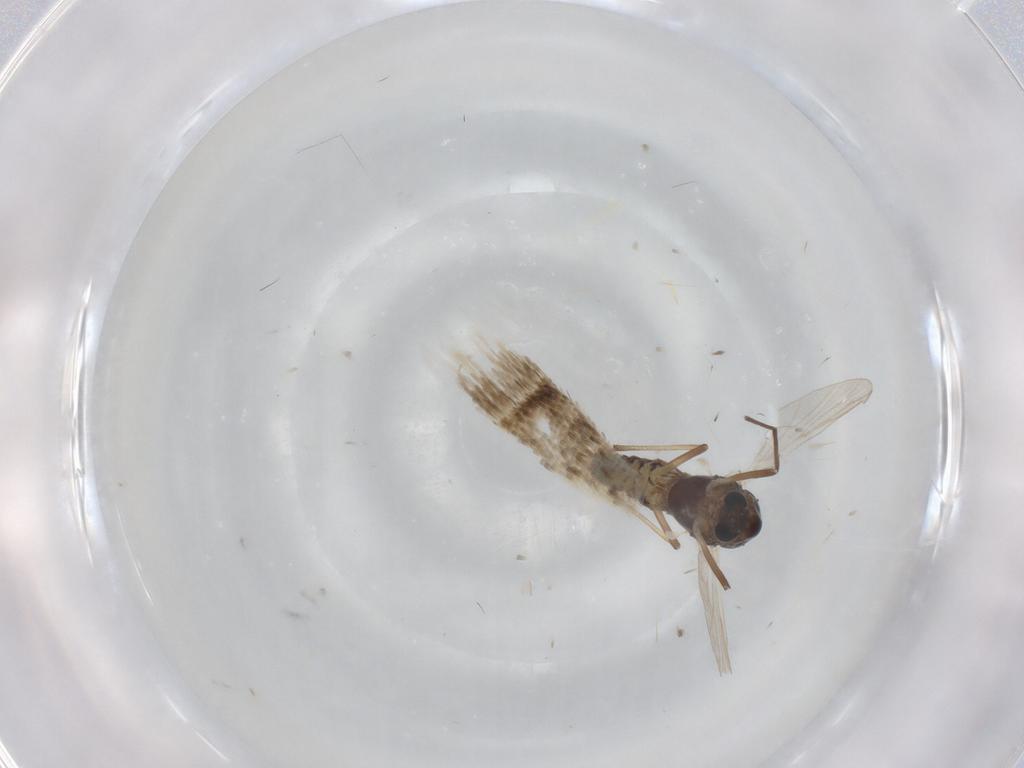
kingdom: Animalia
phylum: Arthropoda
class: Insecta
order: Diptera
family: Chironomidae
